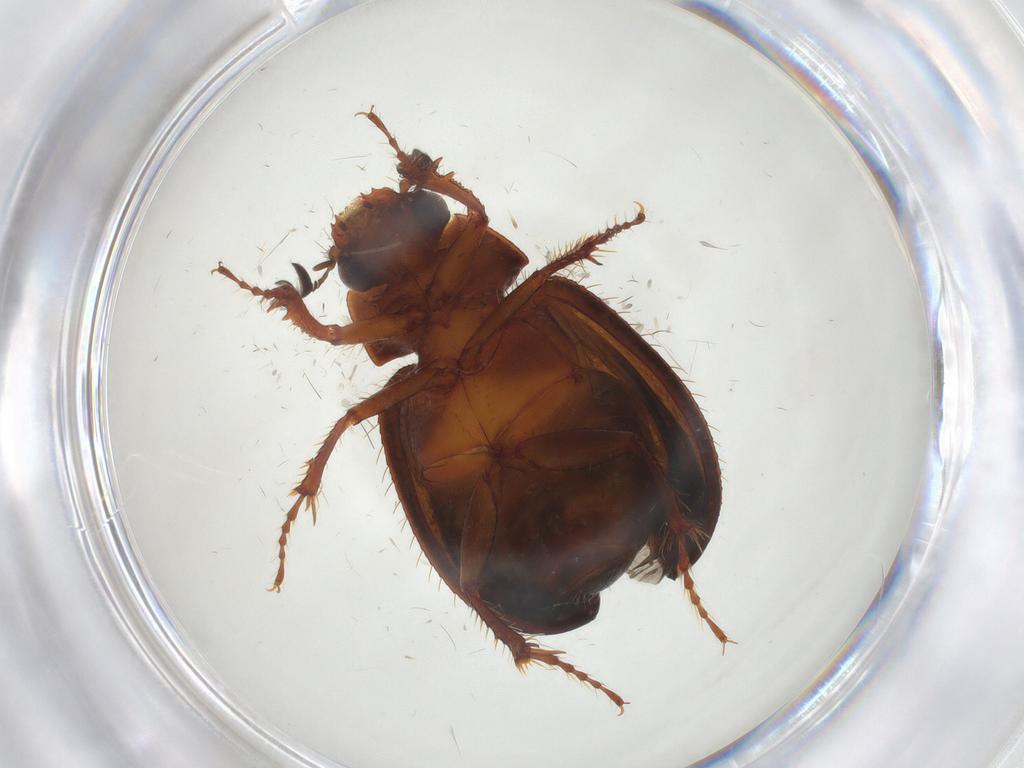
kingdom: Animalia
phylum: Arthropoda
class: Insecta
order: Coleoptera
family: Hybosoridae
